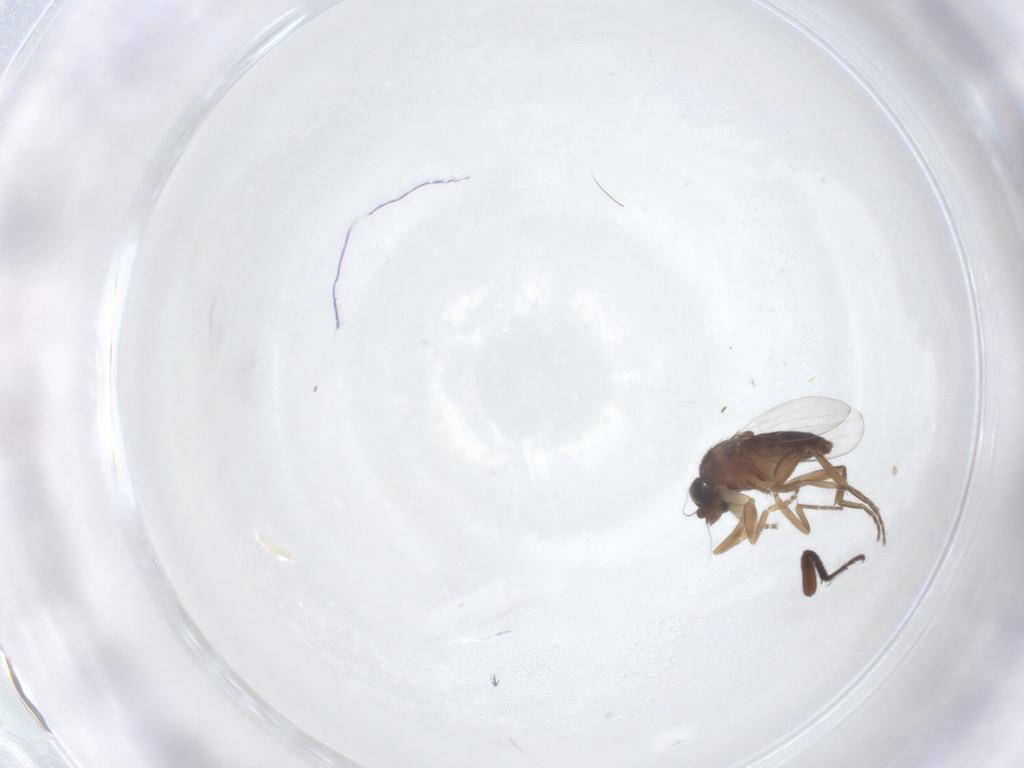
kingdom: Animalia
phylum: Arthropoda
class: Insecta
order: Diptera
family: Phoridae
